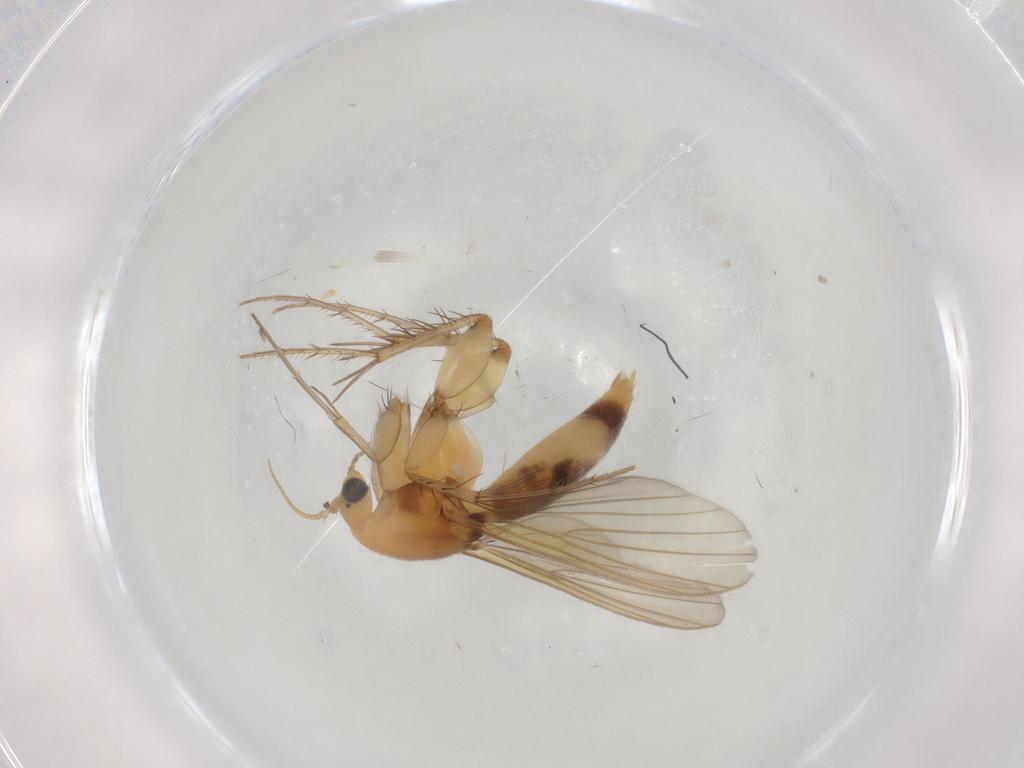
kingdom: Animalia
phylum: Arthropoda
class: Insecta
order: Diptera
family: Mycetophilidae
